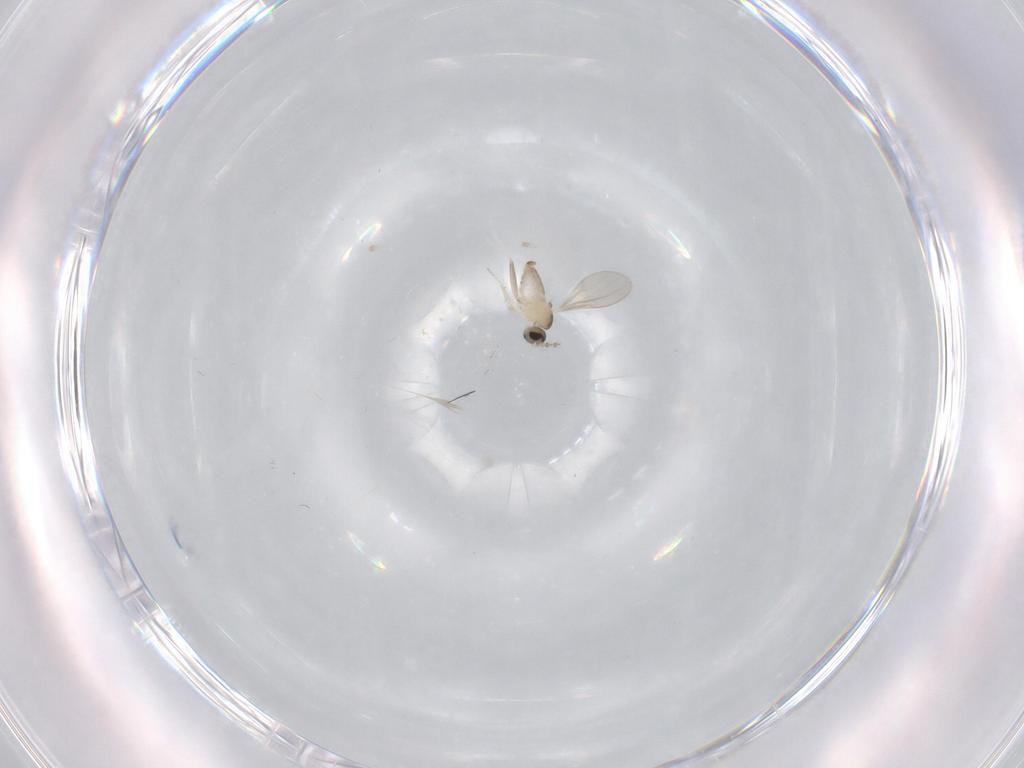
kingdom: Animalia
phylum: Arthropoda
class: Insecta
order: Diptera
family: Cecidomyiidae
